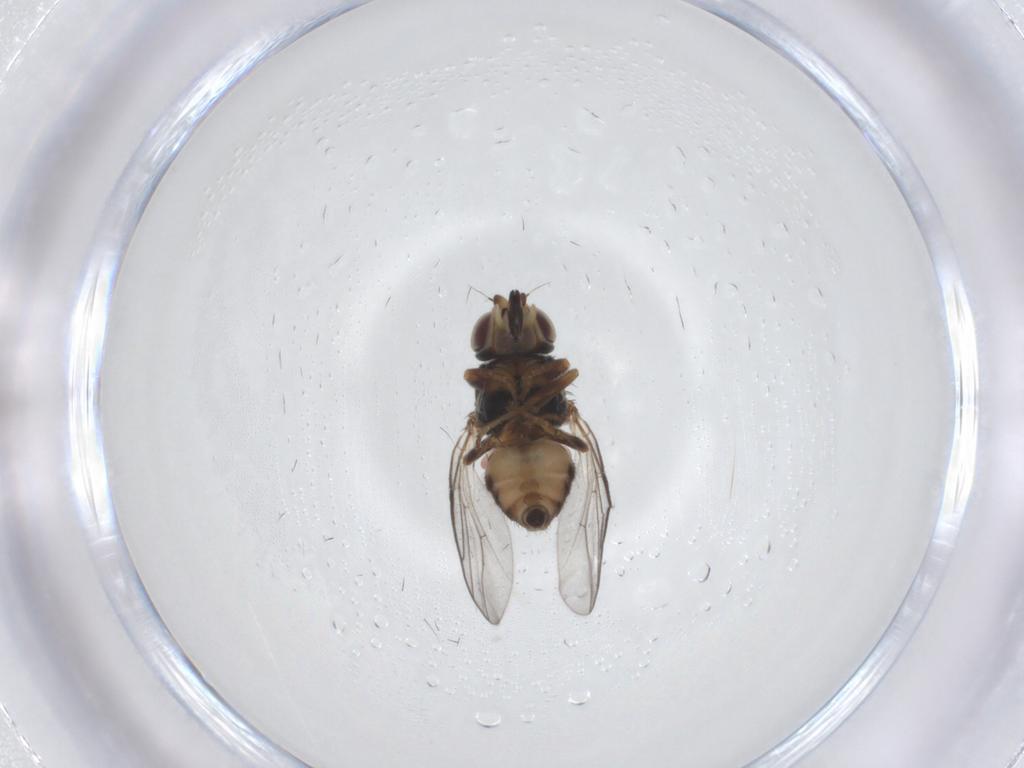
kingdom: Animalia
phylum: Arthropoda
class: Insecta
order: Diptera
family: Chloropidae
